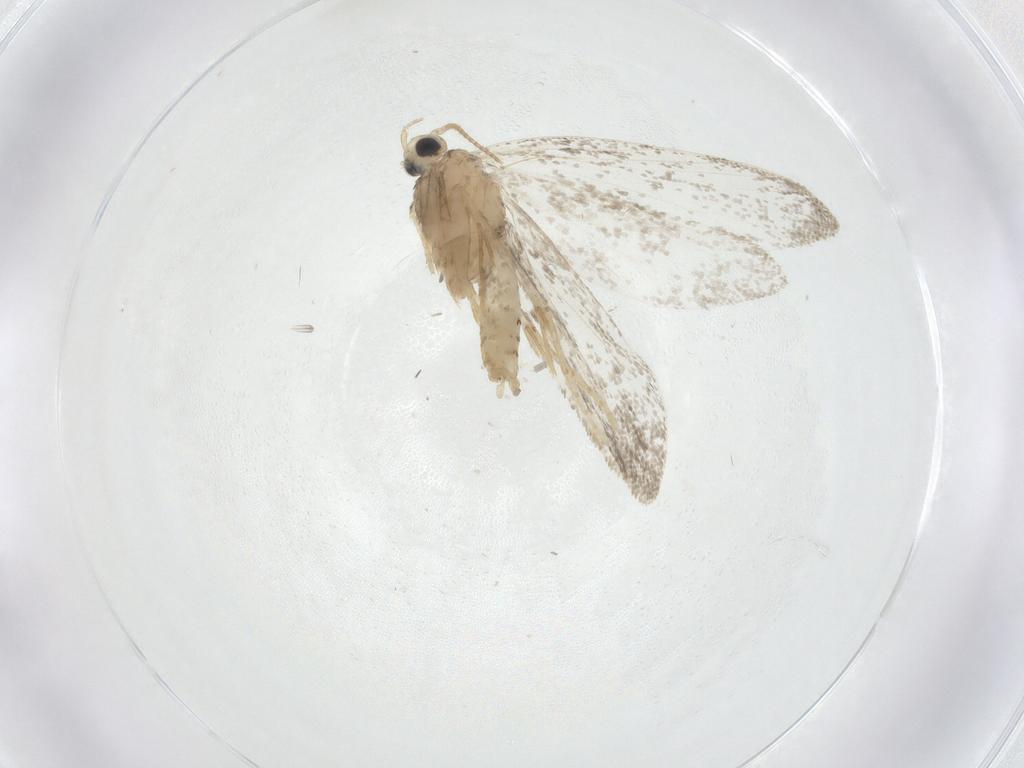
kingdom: Animalia
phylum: Arthropoda
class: Insecta
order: Lepidoptera
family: Psychidae
